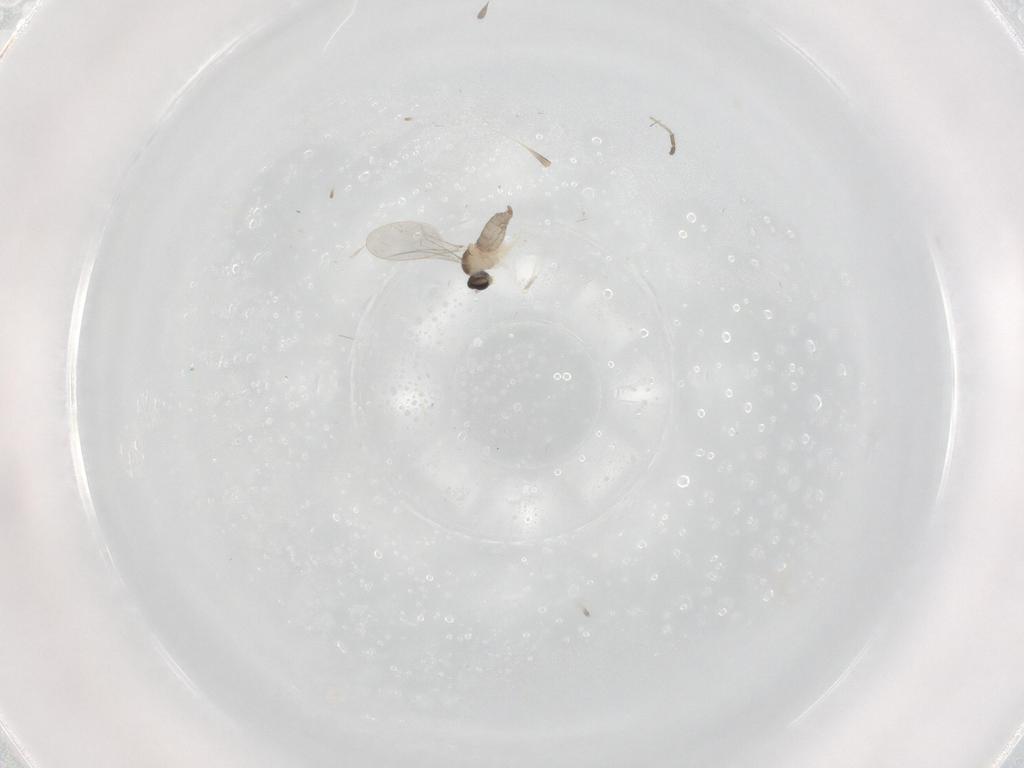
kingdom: Animalia
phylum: Arthropoda
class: Insecta
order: Diptera
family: Cecidomyiidae
